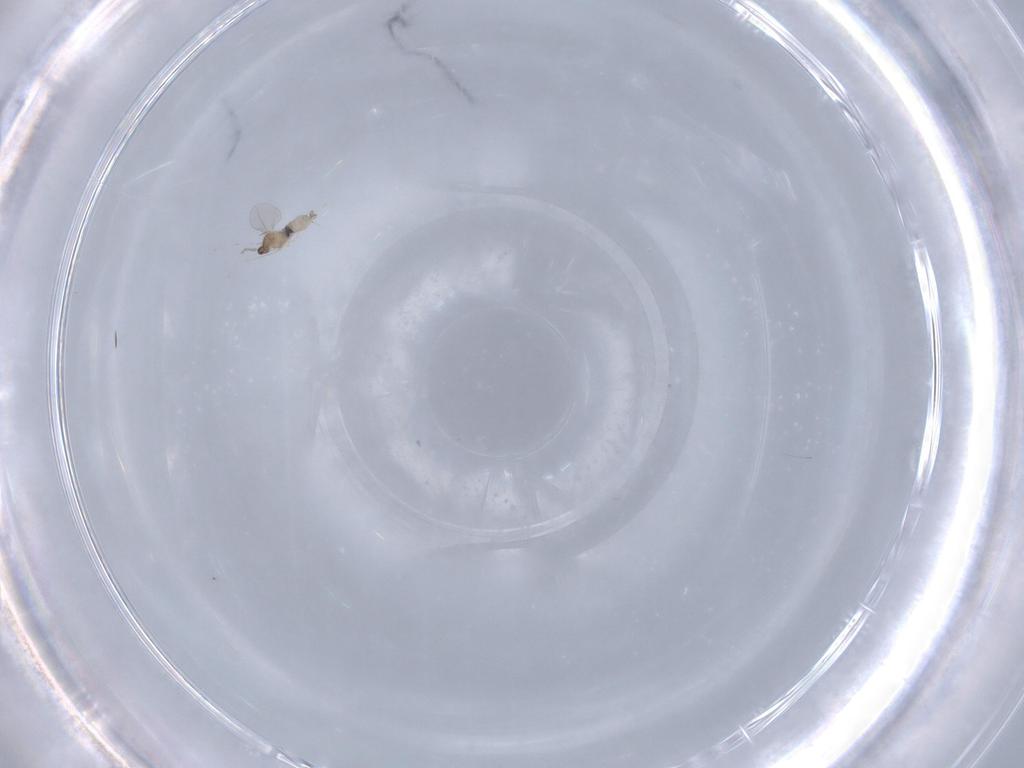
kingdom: Animalia
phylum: Arthropoda
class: Insecta
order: Diptera
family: Cecidomyiidae
